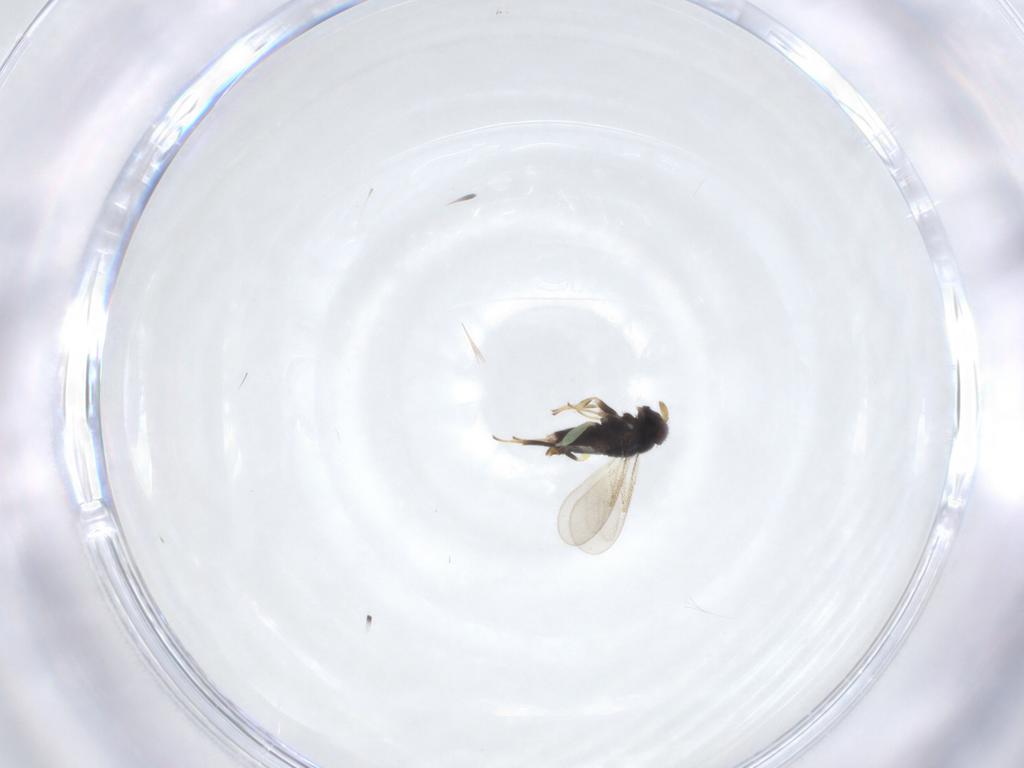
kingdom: Animalia
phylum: Arthropoda
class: Insecta
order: Hymenoptera
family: Aphelinidae
